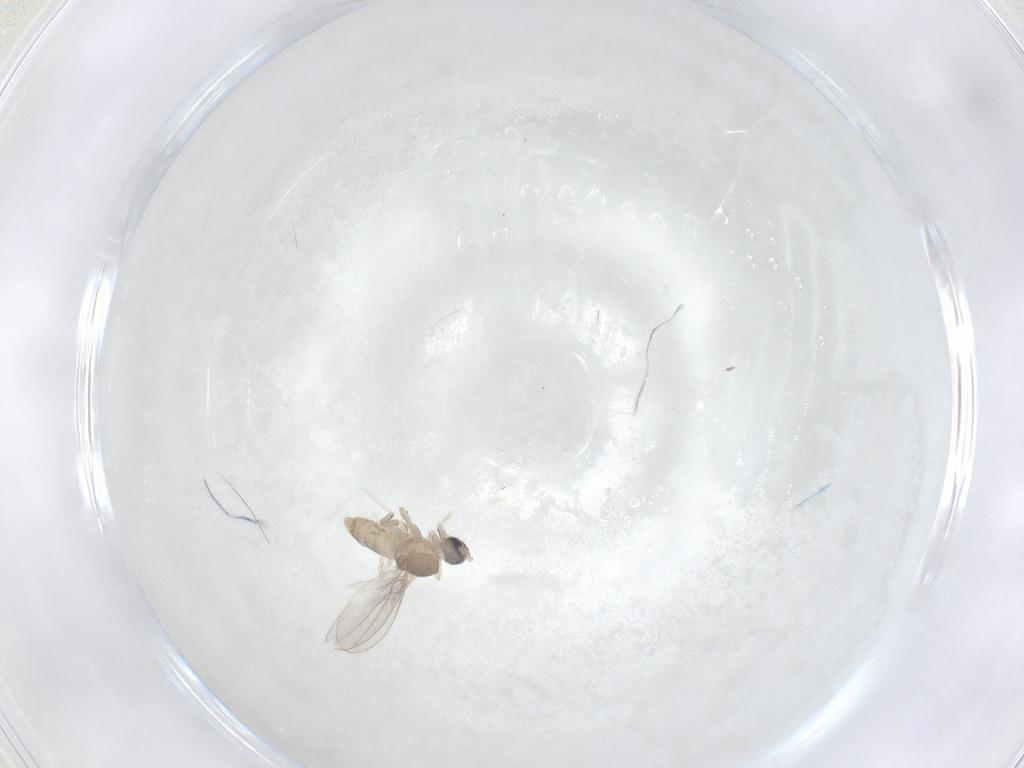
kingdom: Animalia
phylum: Arthropoda
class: Insecta
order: Diptera
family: Cecidomyiidae
